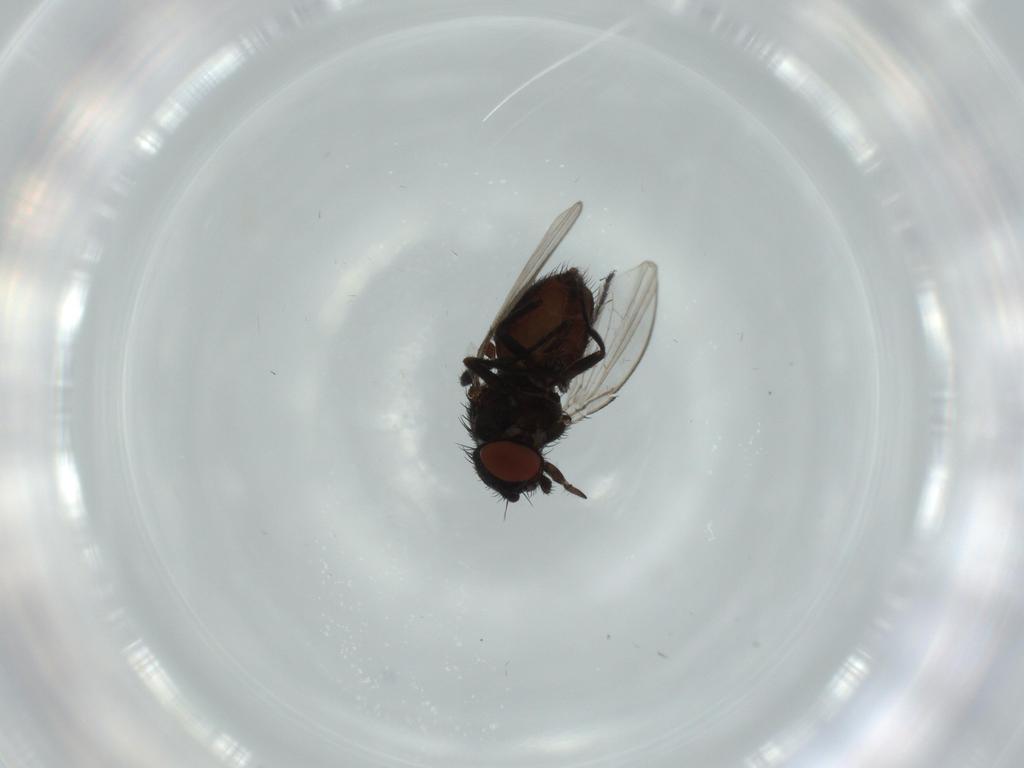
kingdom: Animalia
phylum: Arthropoda
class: Insecta
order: Diptera
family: Milichiidae
